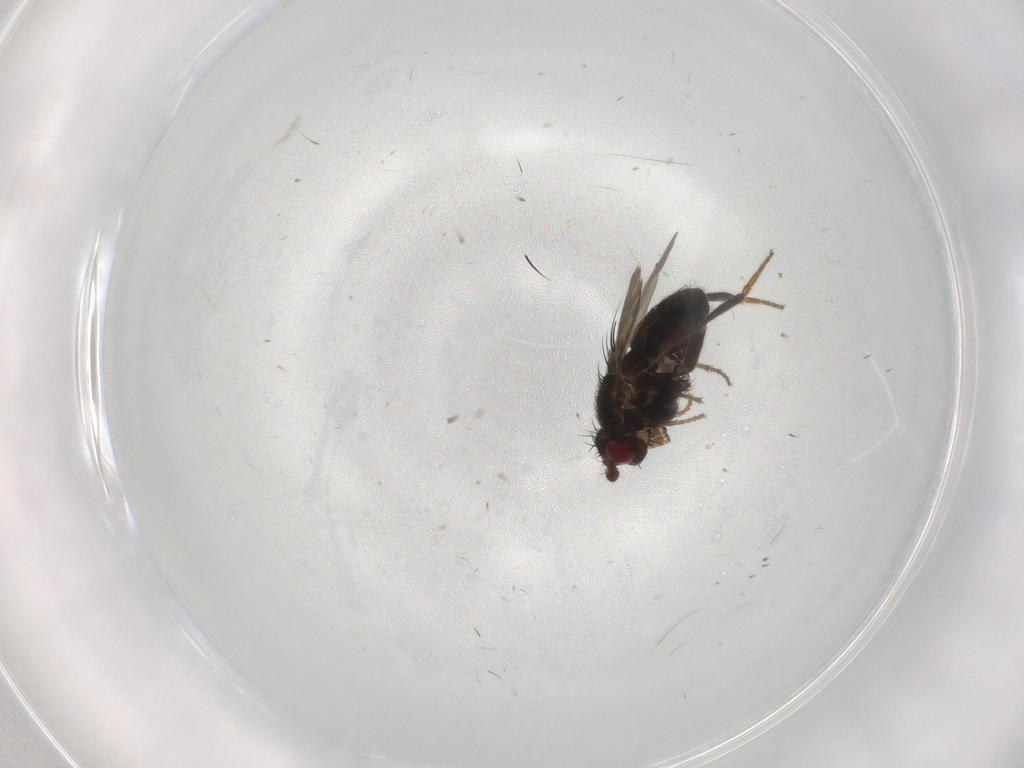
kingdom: Animalia
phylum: Arthropoda
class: Insecta
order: Diptera
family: Sphaeroceridae
